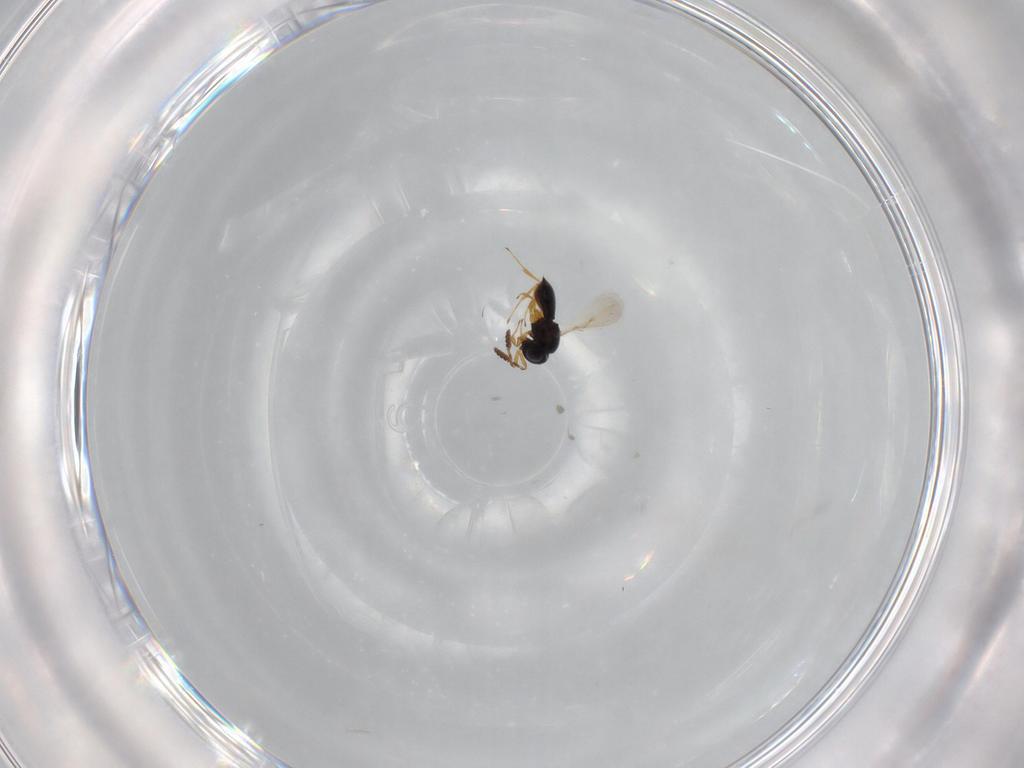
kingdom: Animalia
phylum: Arthropoda
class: Insecta
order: Hymenoptera
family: Scelionidae
